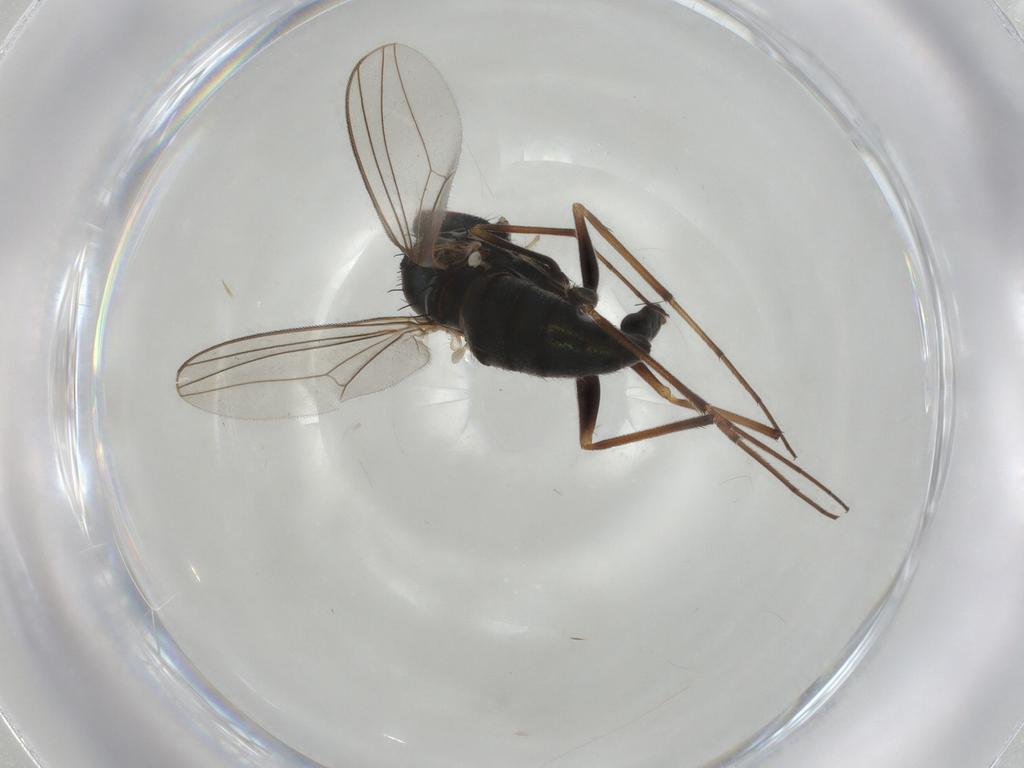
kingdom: Animalia
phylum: Arthropoda
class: Insecta
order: Diptera
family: Dolichopodidae
